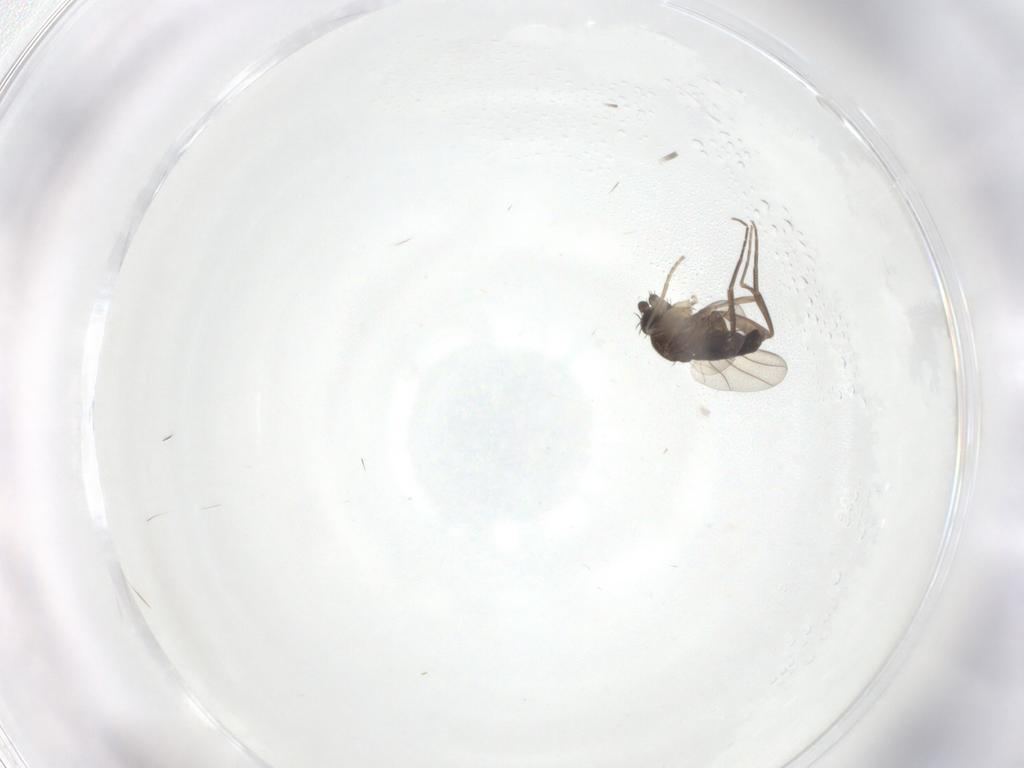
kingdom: Animalia
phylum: Arthropoda
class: Insecta
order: Diptera
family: Phoridae
